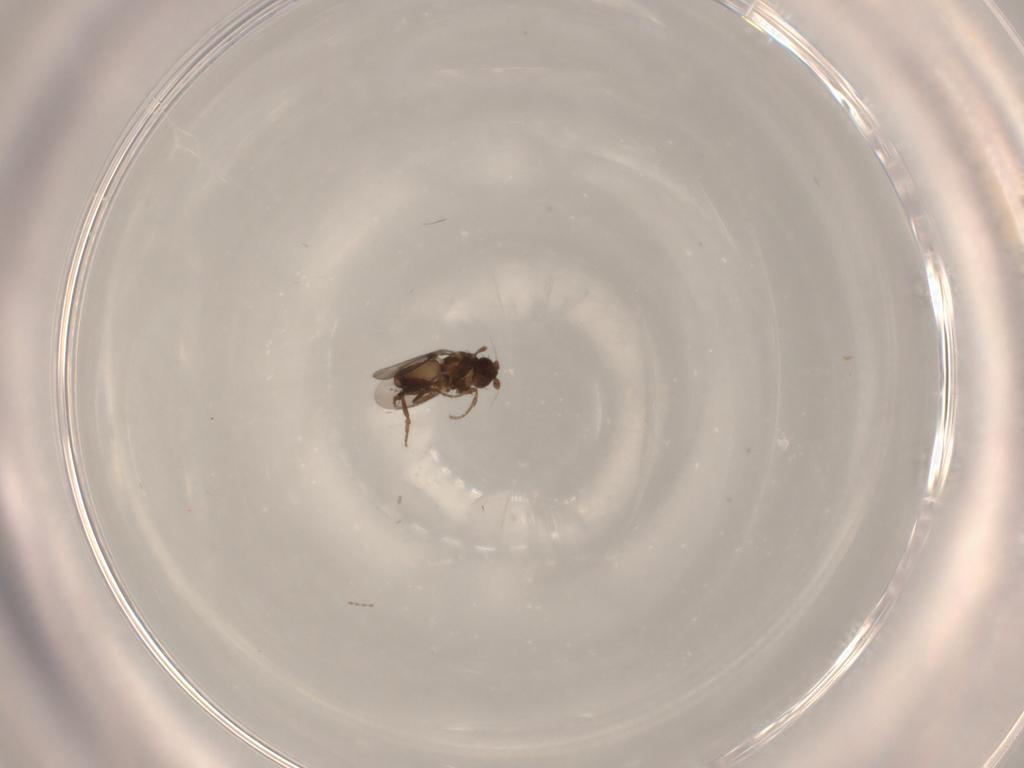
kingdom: Animalia
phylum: Arthropoda
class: Insecta
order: Diptera
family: Sphaeroceridae
